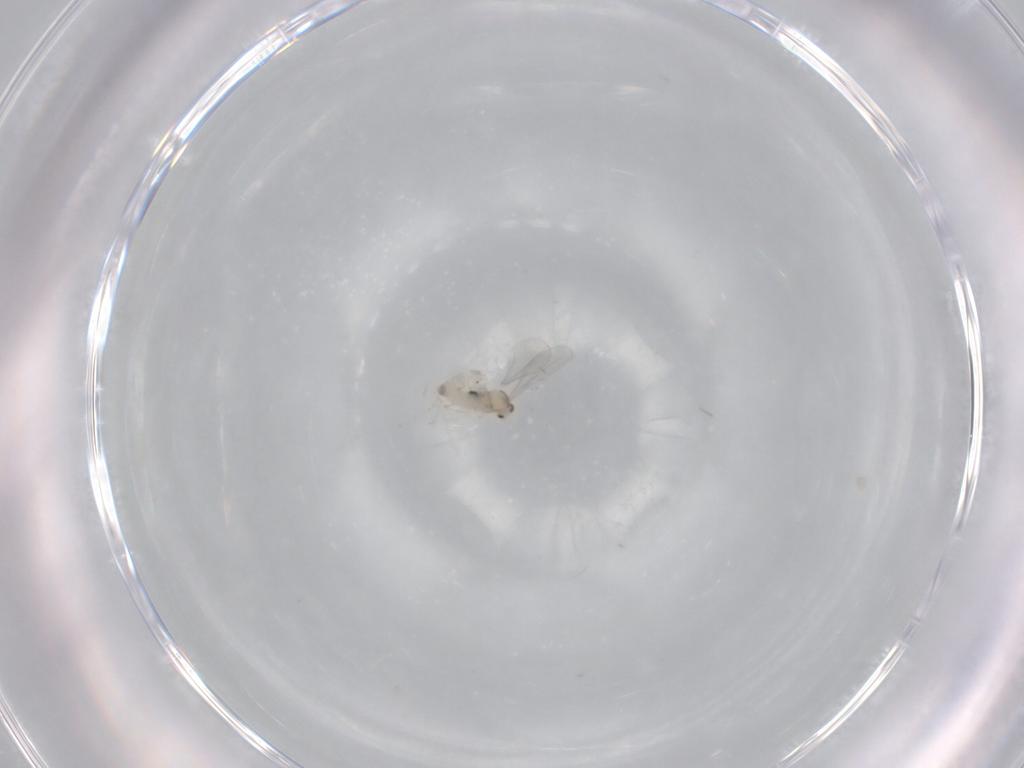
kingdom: Animalia
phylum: Arthropoda
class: Insecta
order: Diptera
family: Cecidomyiidae
